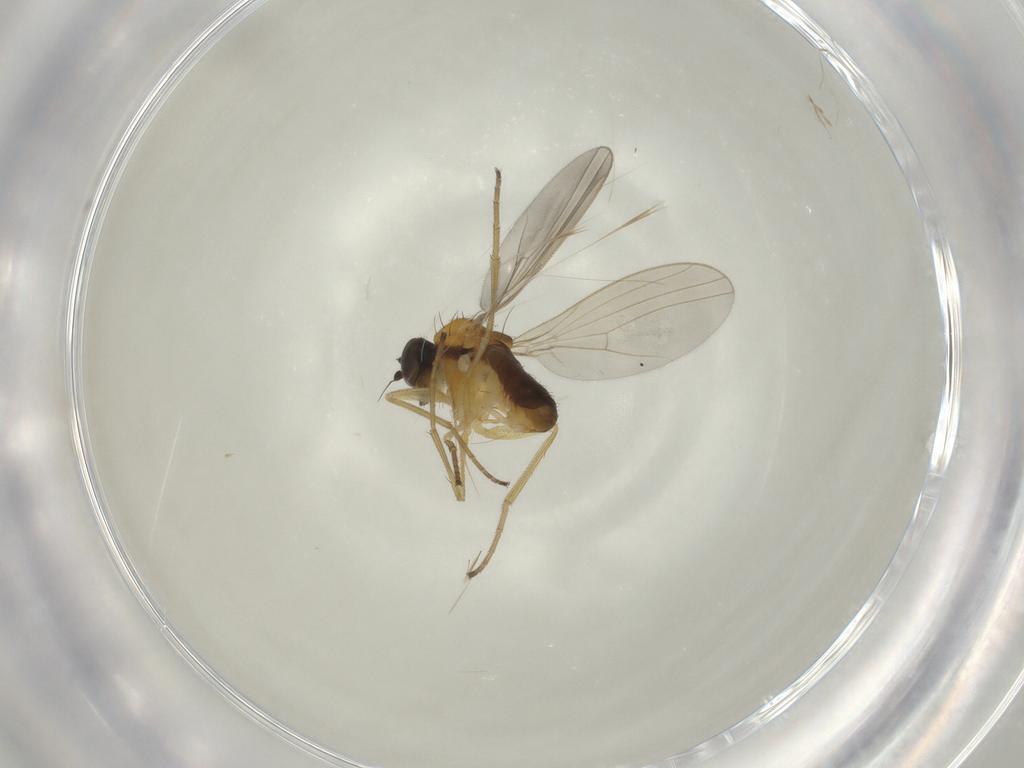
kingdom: Animalia
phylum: Arthropoda
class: Insecta
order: Diptera
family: Dolichopodidae
